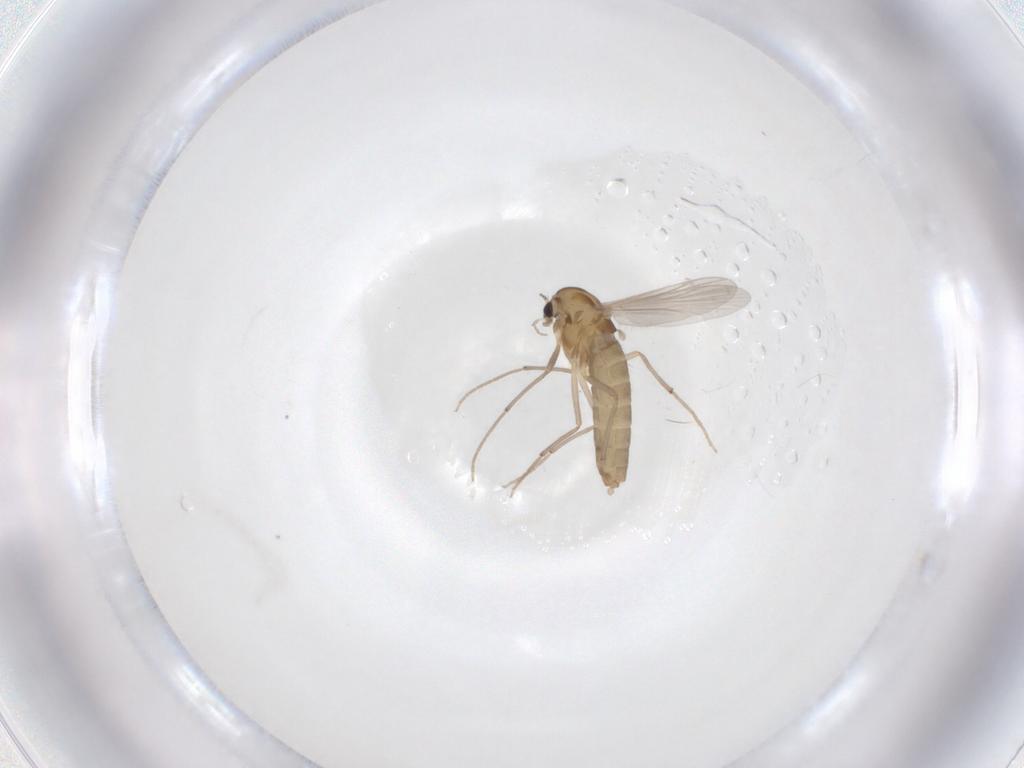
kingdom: Animalia
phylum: Arthropoda
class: Insecta
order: Diptera
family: Chironomidae
